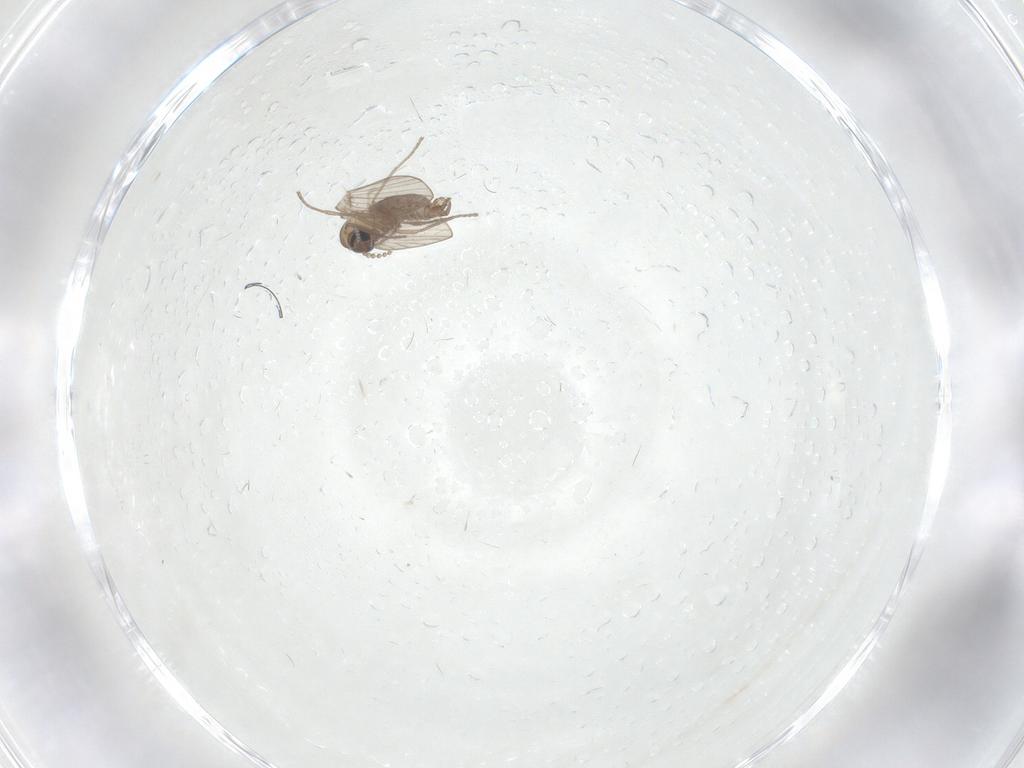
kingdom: Animalia
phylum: Arthropoda
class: Insecta
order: Diptera
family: Psychodidae
